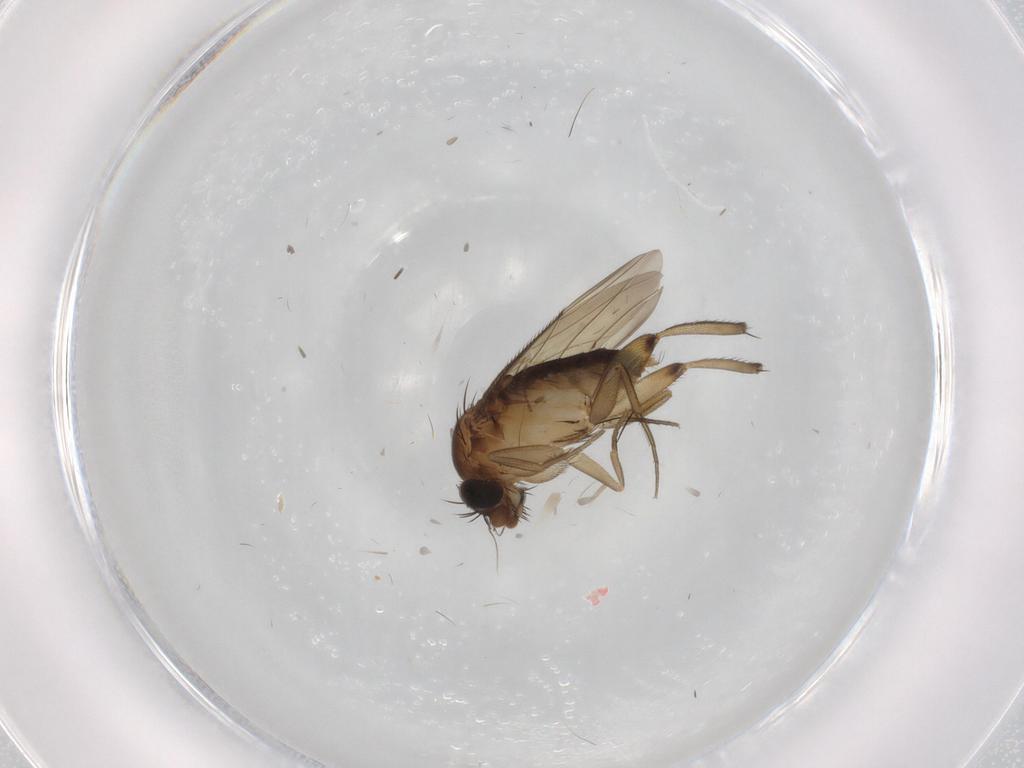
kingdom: Animalia
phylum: Arthropoda
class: Insecta
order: Diptera
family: Phoridae
